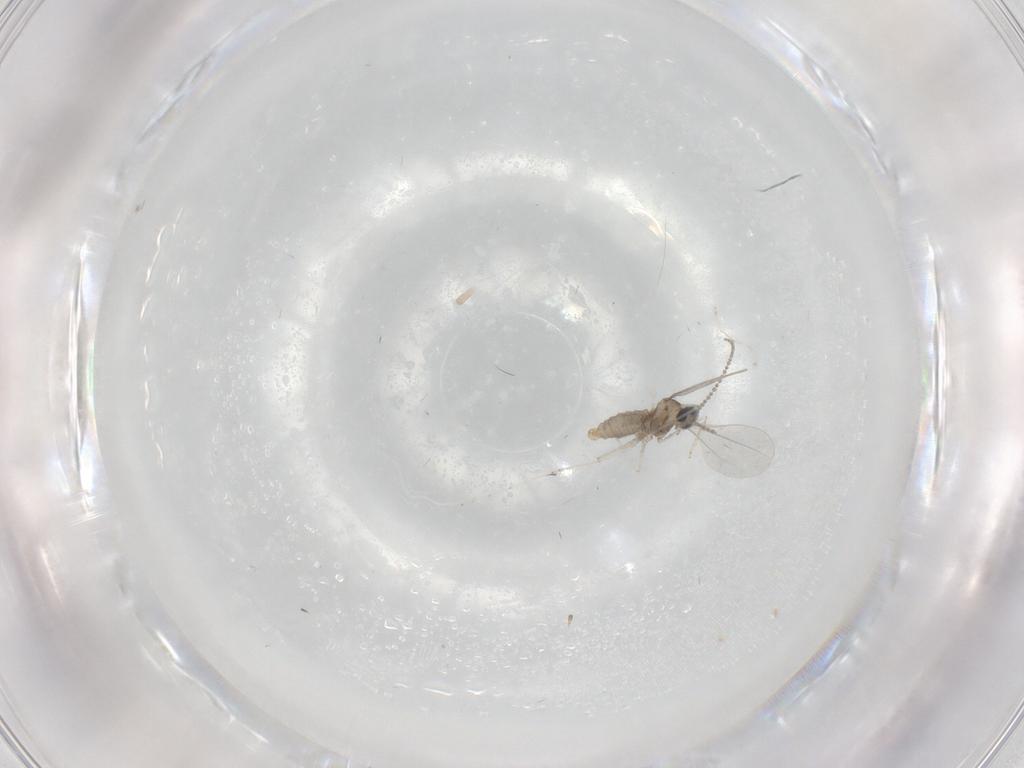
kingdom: Animalia
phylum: Arthropoda
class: Insecta
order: Diptera
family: Cecidomyiidae
